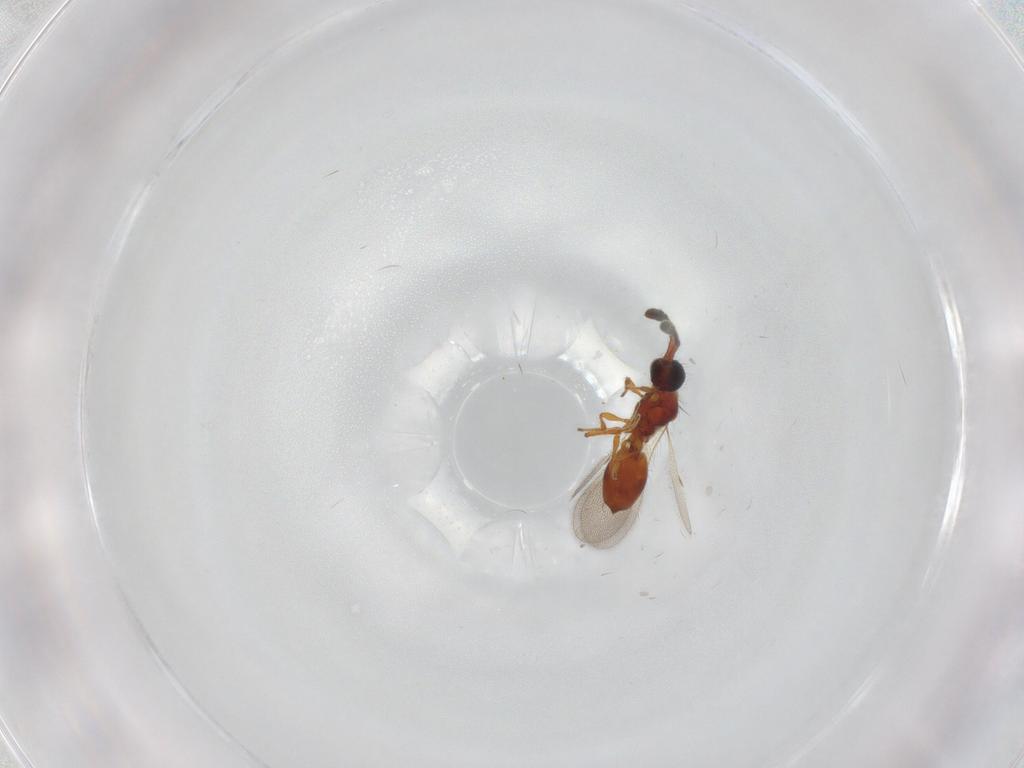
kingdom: Animalia
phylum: Arthropoda
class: Insecta
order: Hymenoptera
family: Diapriidae
